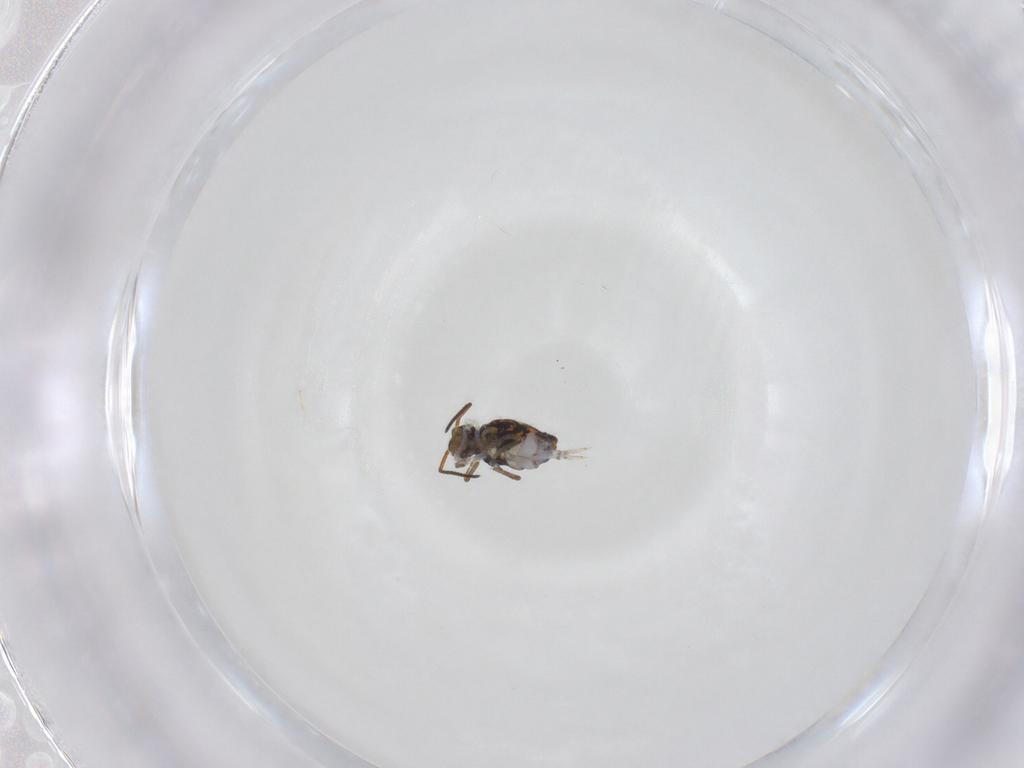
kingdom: Animalia
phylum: Arthropoda
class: Collembola
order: Symphypleona
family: Katiannidae
